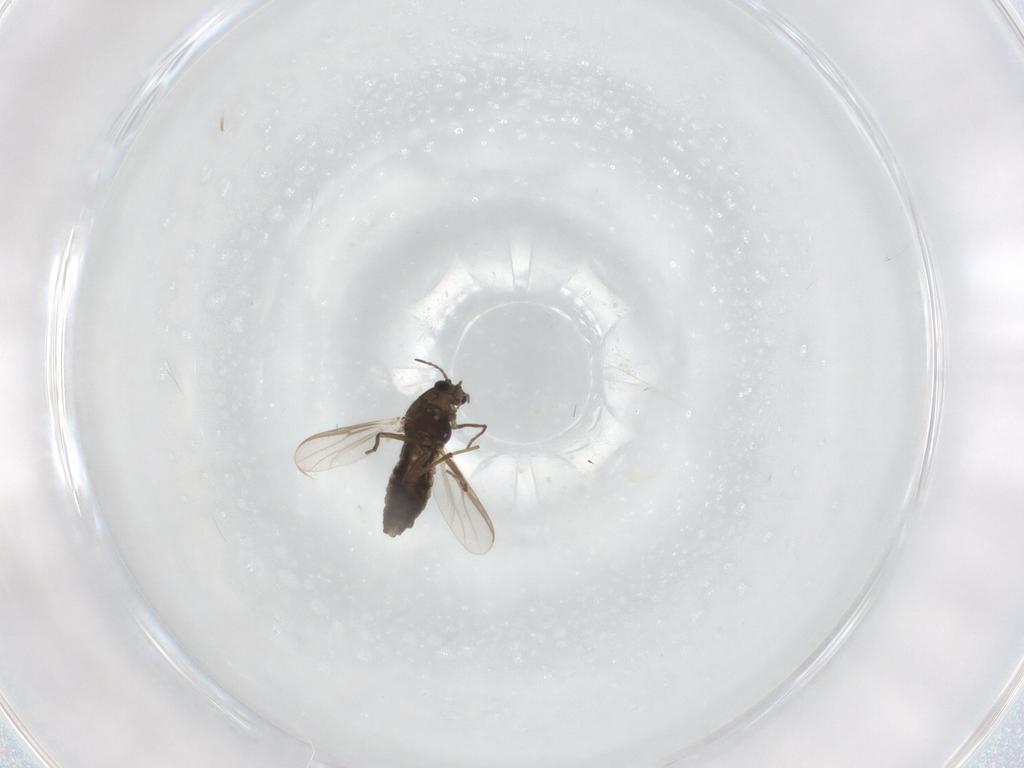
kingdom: Animalia
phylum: Arthropoda
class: Insecta
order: Diptera
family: Chironomidae
